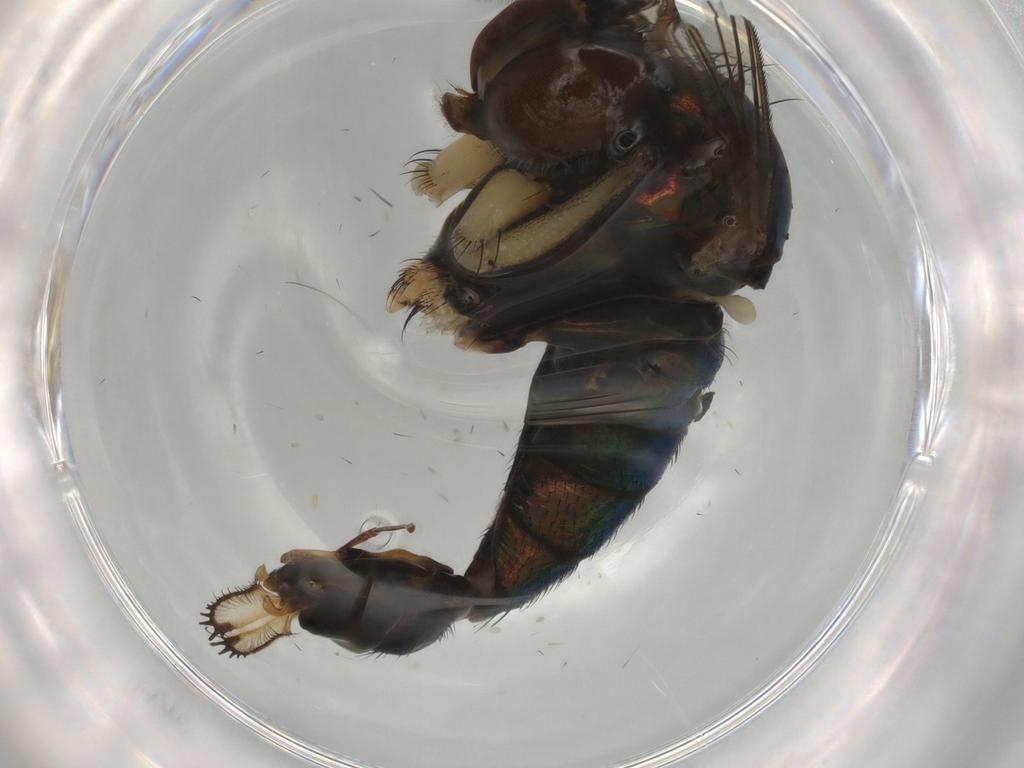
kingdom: Animalia
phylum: Arthropoda
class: Insecta
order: Diptera
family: Dolichopodidae
